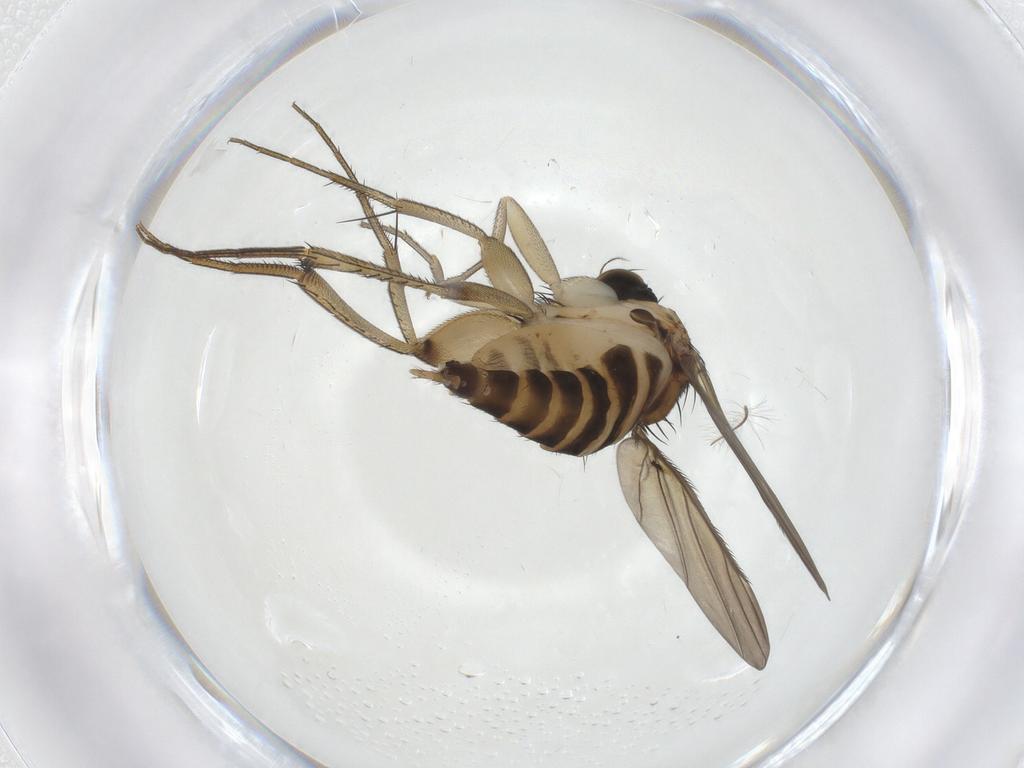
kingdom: Animalia
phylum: Arthropoda
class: Insecta
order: Diptera
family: Phoridae
